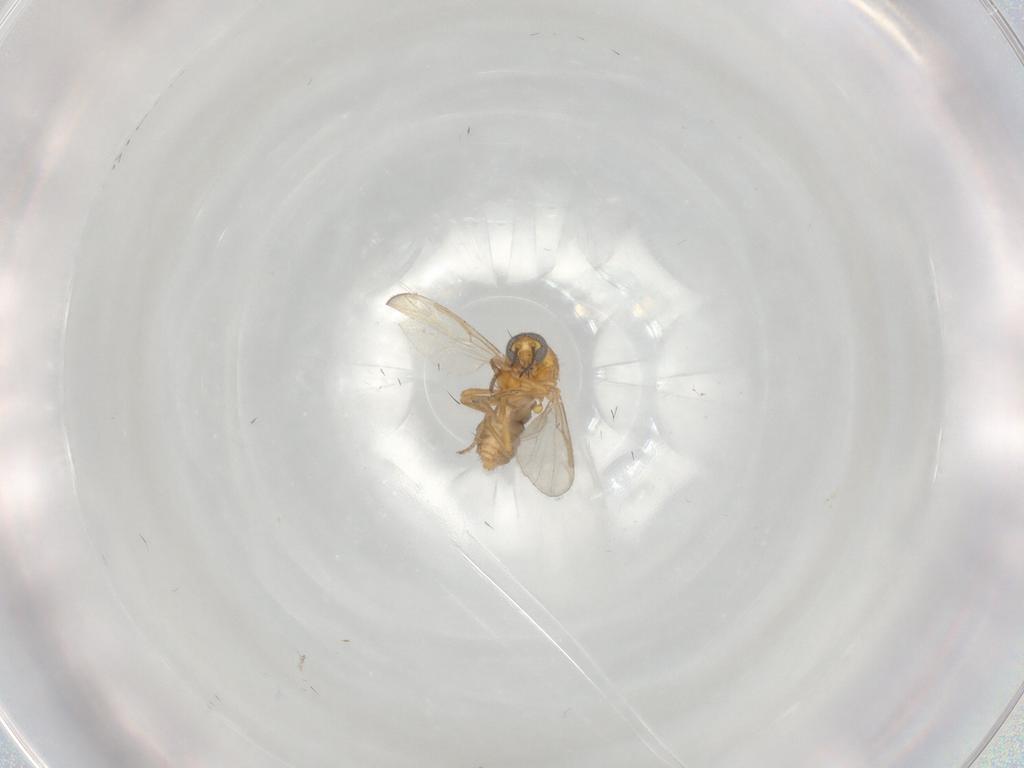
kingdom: Animalia
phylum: Arthropoda
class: Insecta
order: Diptera
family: Ceratopogonidae
